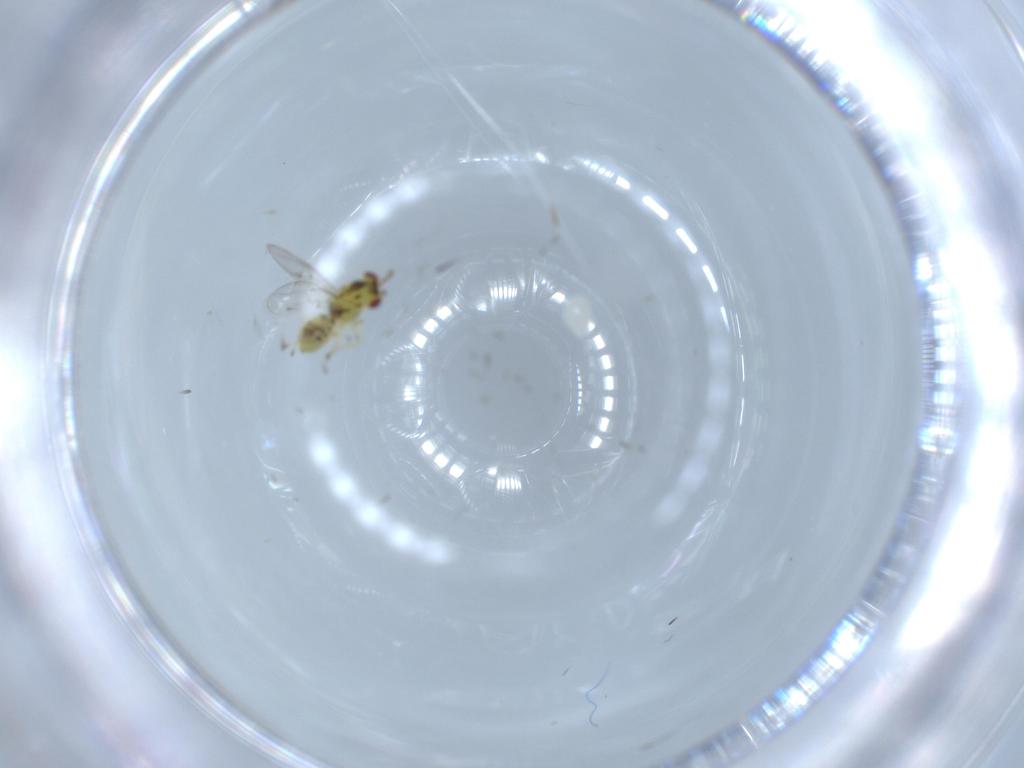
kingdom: Animalia
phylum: Arthropoda
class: Insecta
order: Hymenoptera
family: Eulophidae
